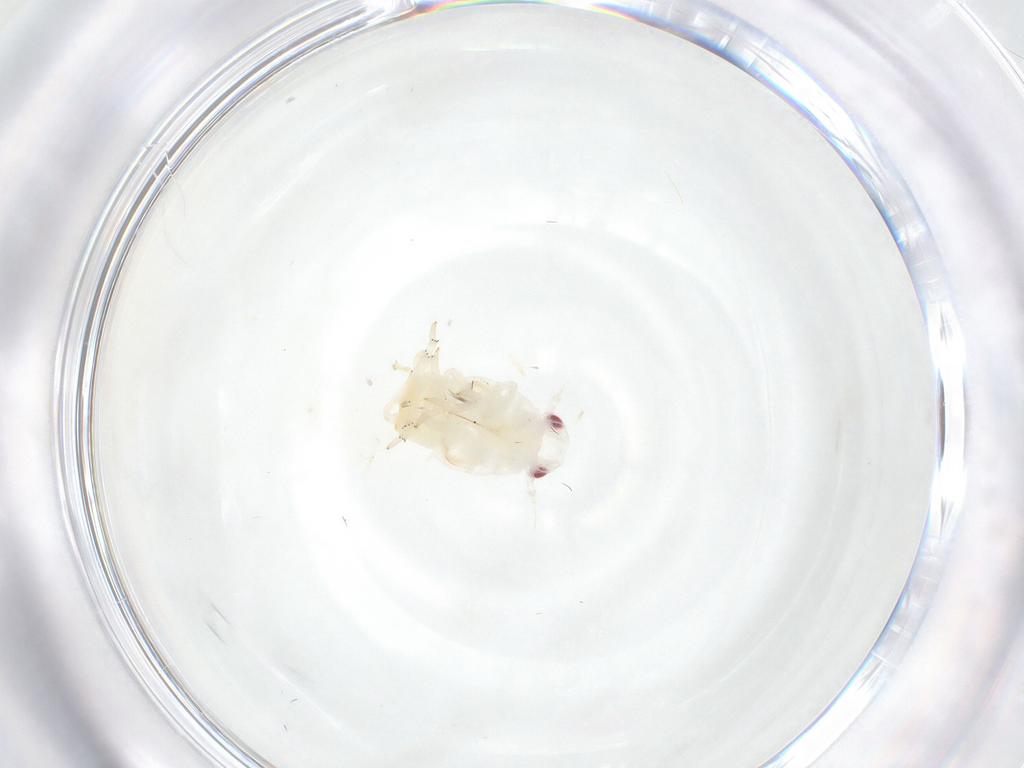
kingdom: Animalia
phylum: Arthropoda
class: Insecta
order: Hemiptera
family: Flatidae
